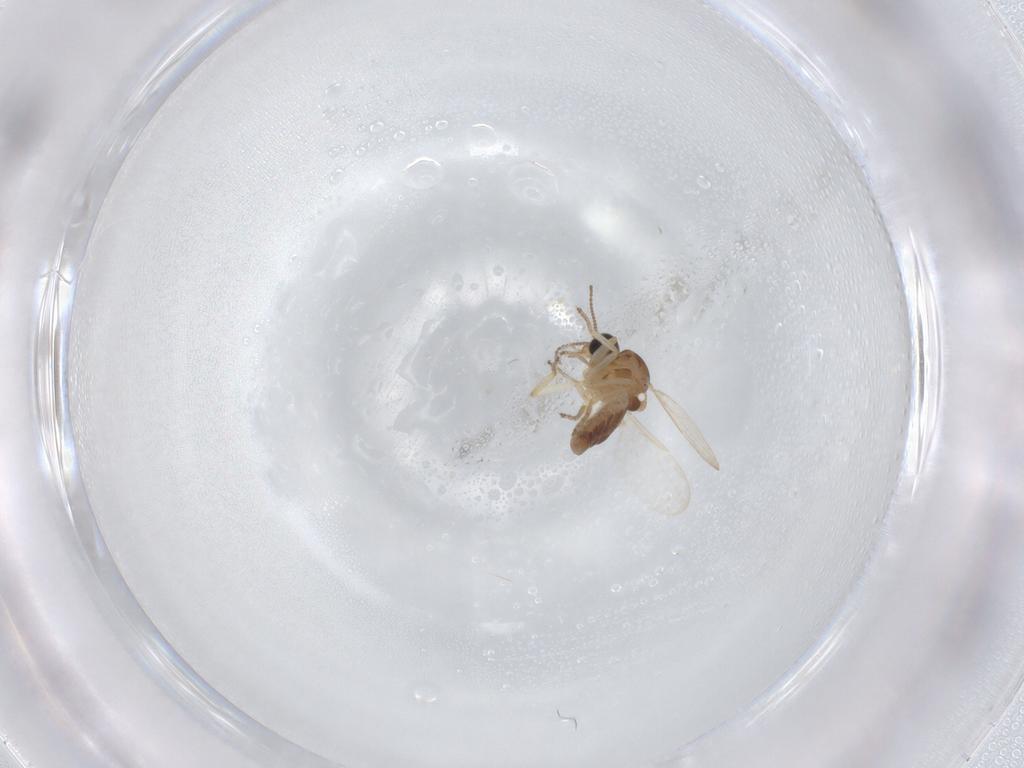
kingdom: Animalia
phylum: Arthropoda
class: Insecta
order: Diptera
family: Ceratopogonidae
